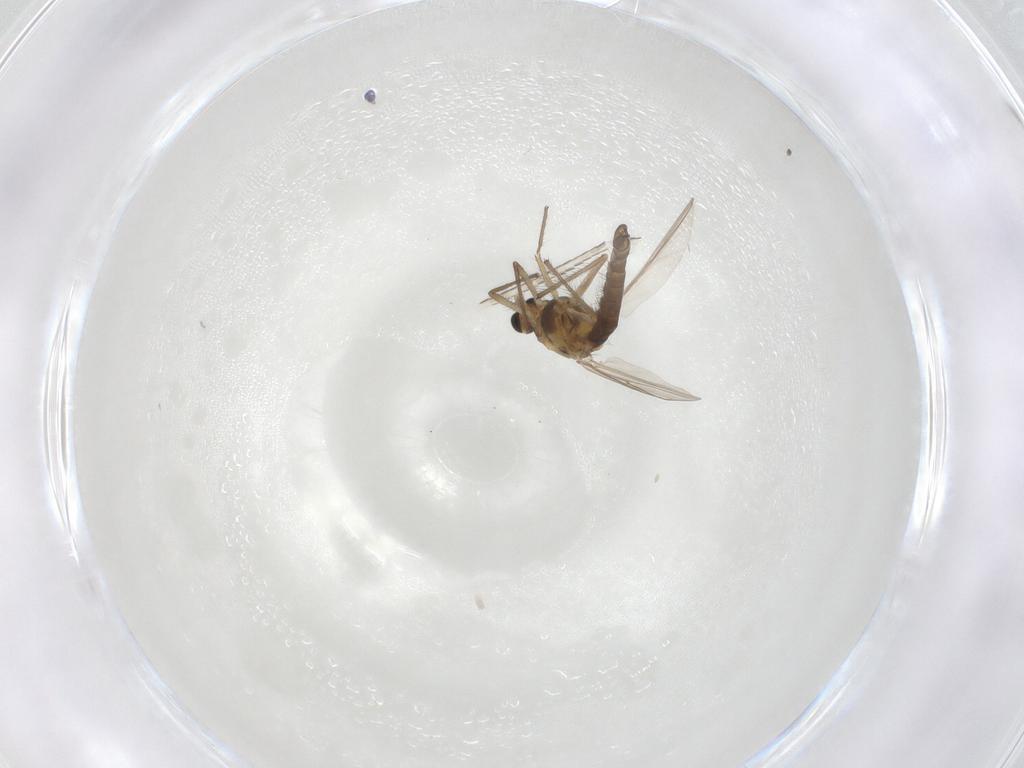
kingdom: Animalia
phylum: Arthropoda
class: Insecta
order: Diptera
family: Chironomidae
